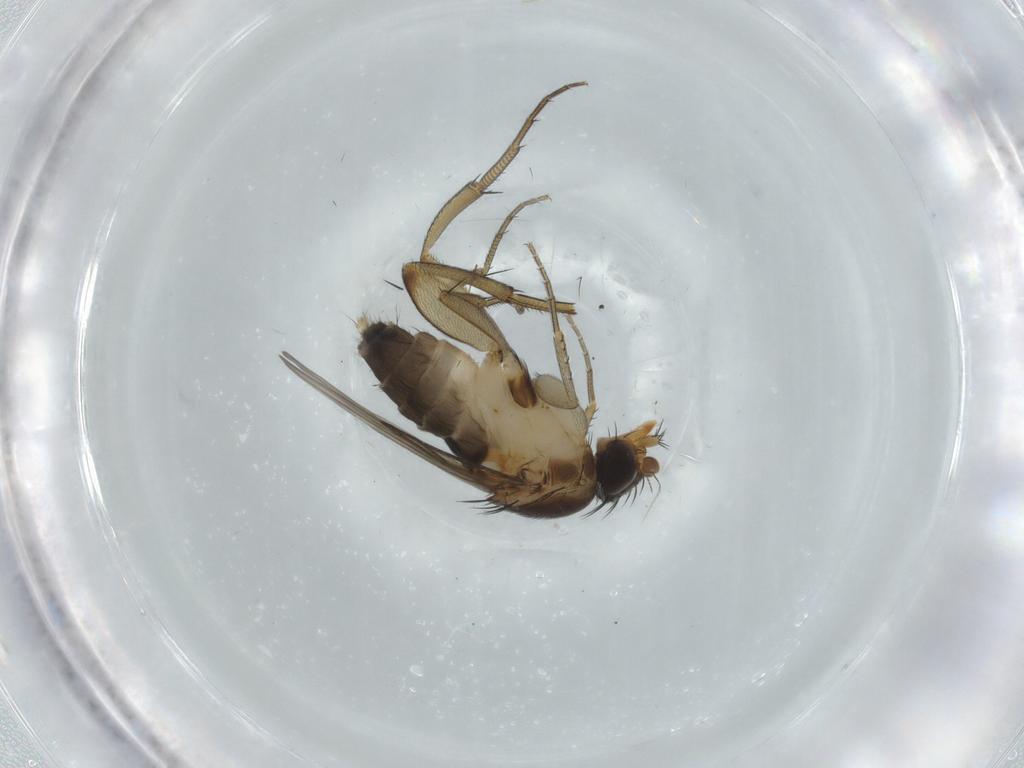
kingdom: Animalia
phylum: Arthropoda
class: Insecta
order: Diptera
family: Phoridae
